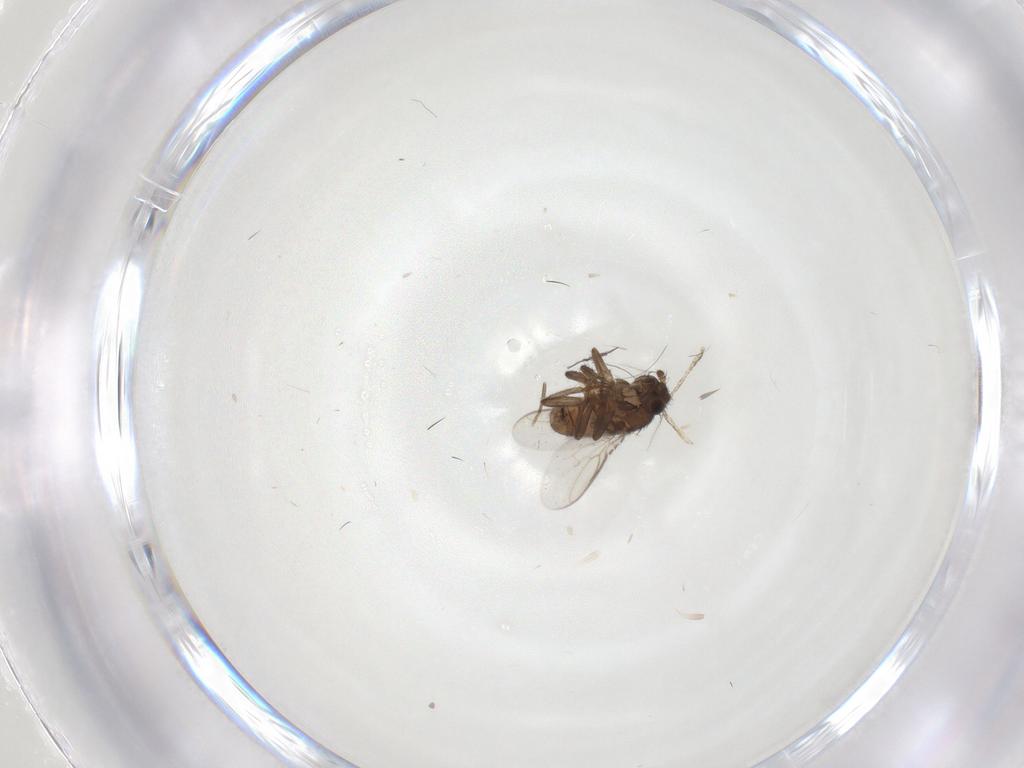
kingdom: Animalia
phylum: Arthropoda
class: Insecta
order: Diptera
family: Sphaeroceridae
